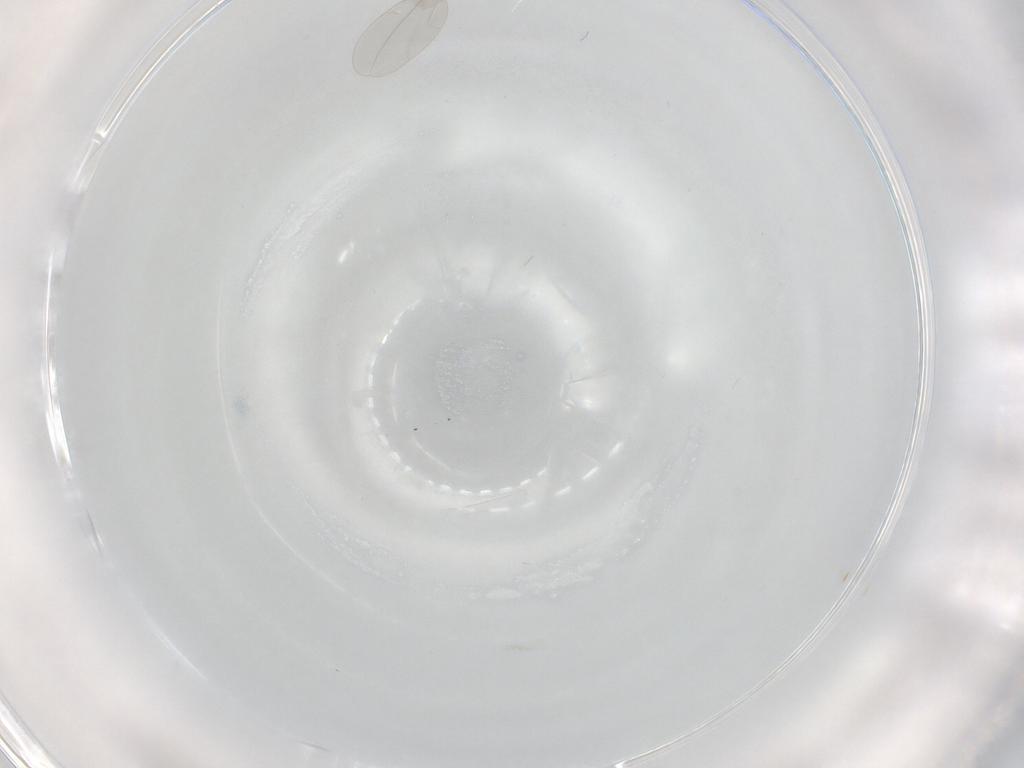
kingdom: Animalia
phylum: Arthropoda
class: Insecta
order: Diptera
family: Cecidomyiidae
